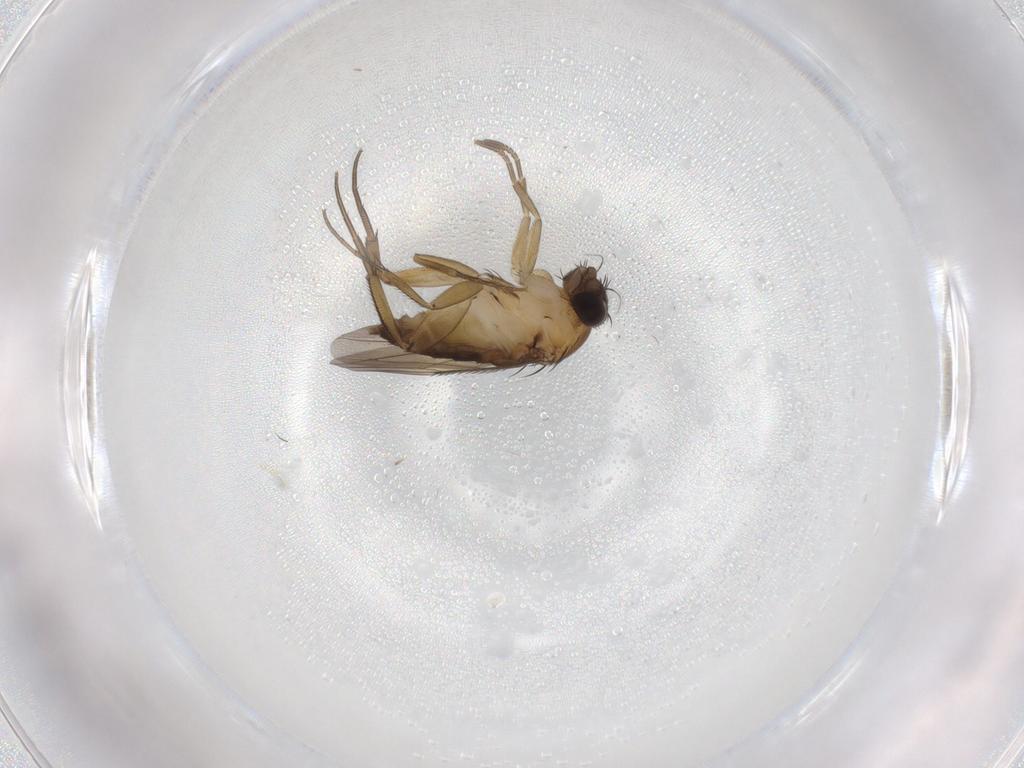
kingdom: Animalia
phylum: Arthropoda
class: Insecta
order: Diptera
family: Phoridae
